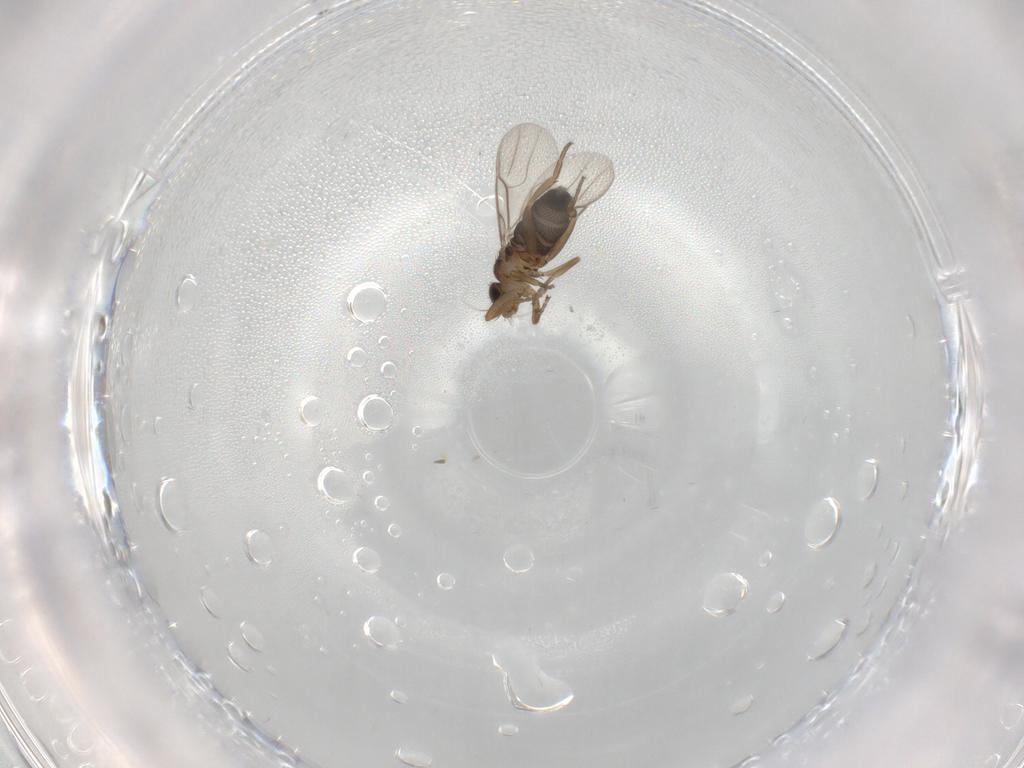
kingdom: Animalia
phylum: Arthropoda
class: Insecta
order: Diptera
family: Phoridae
